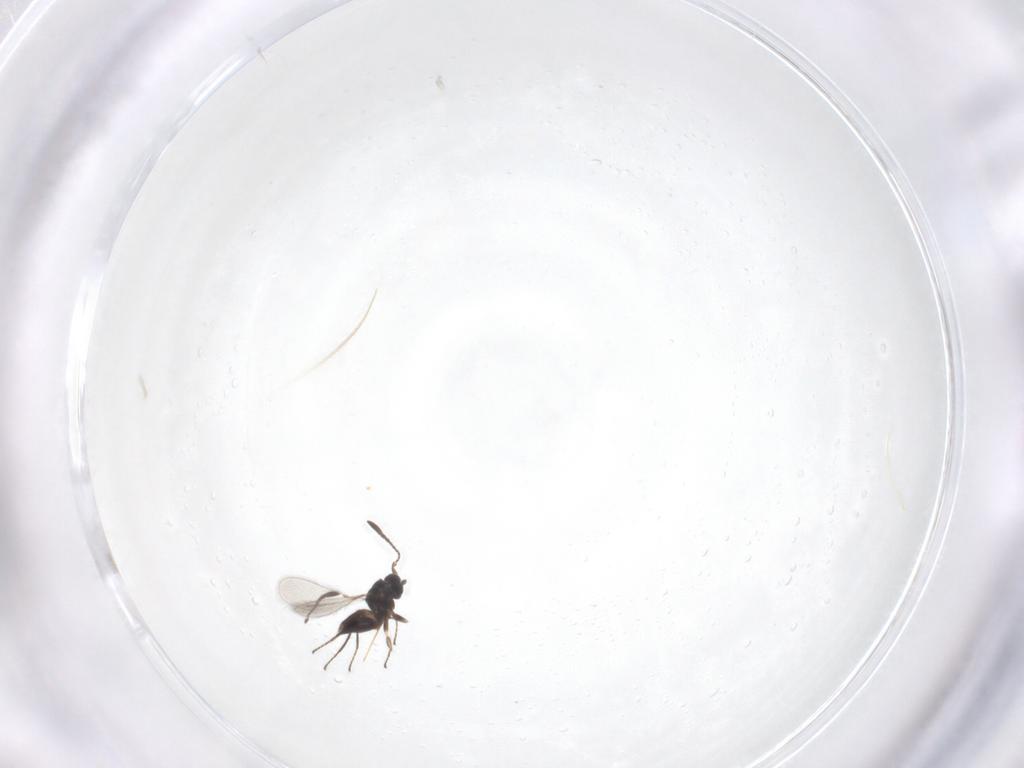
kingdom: Animalia
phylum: Arthropoda
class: Insecta
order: Hymenoptera
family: Mymaridae
